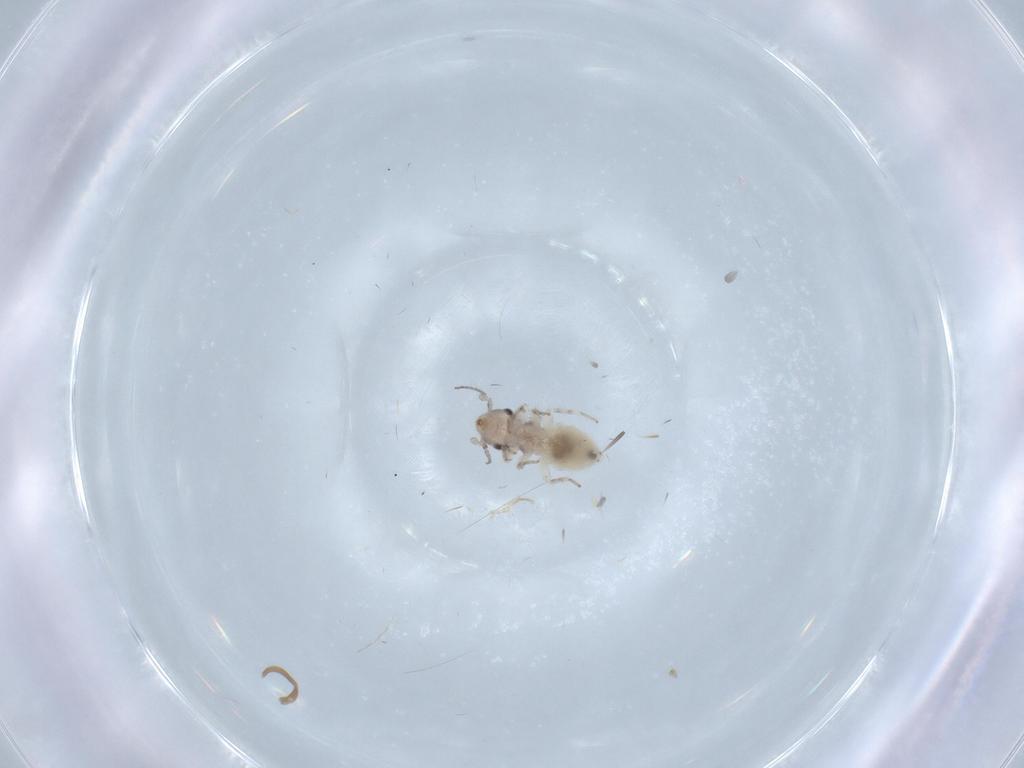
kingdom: Animalia
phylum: Arthropoda
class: Insecta
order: Psocodea
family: Lepidopsocidae
